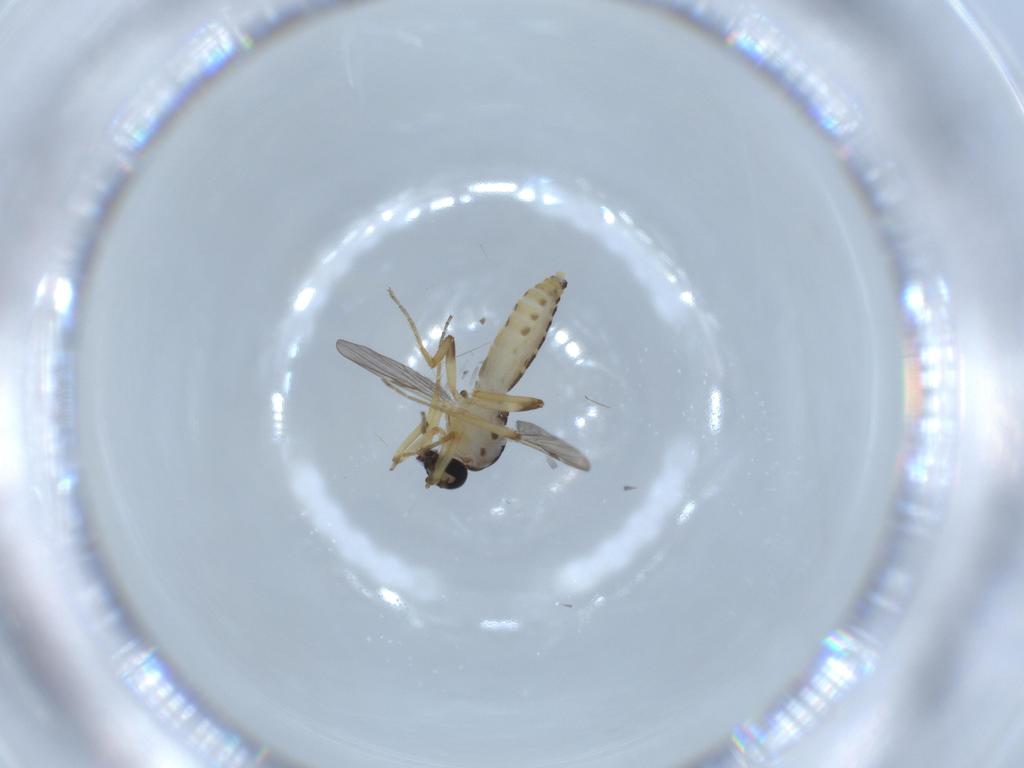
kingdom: Animalia
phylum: Arthropoda
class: Insecta
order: Diptera
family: Ceratopogonidae
